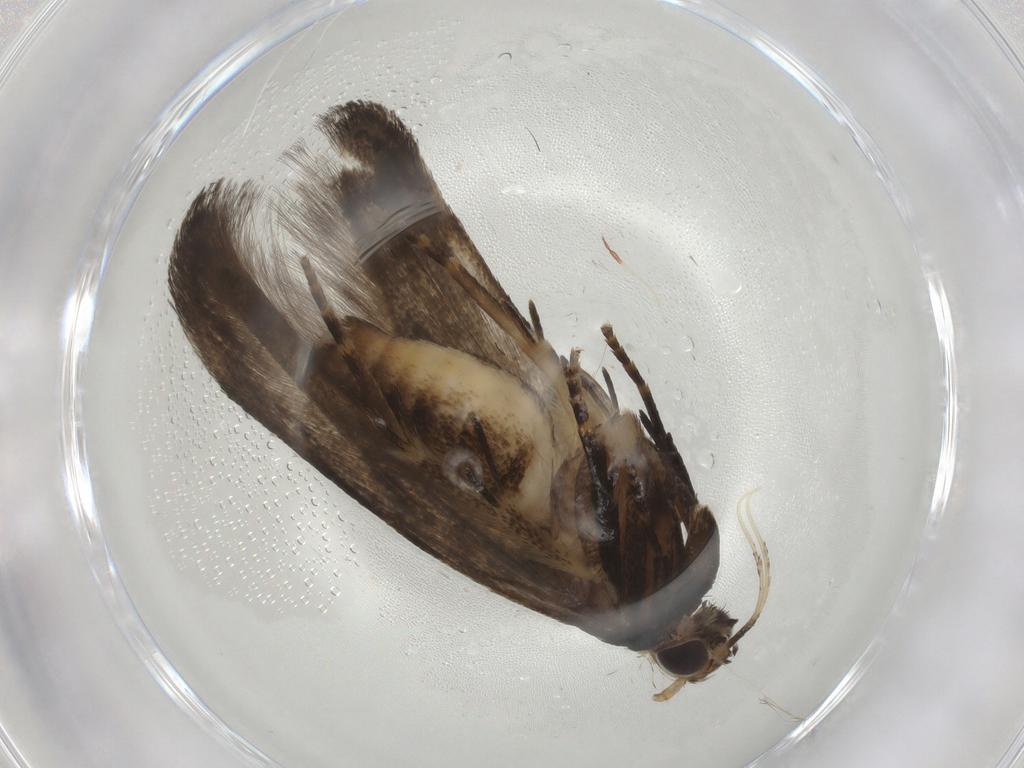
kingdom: Animalia
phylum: Arthropoda
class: Insecta
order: Lepidoptera
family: Gelechiidae
